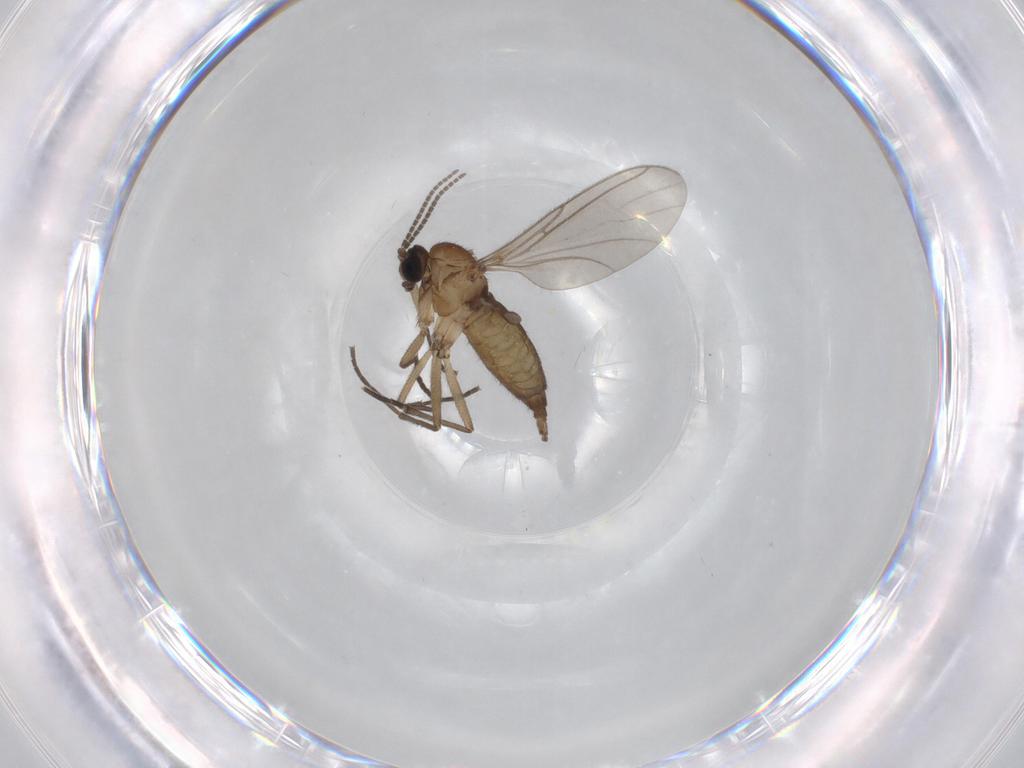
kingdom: Animalia
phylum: Arthropoda
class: Insecta
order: Diptera
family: Sciaridae
